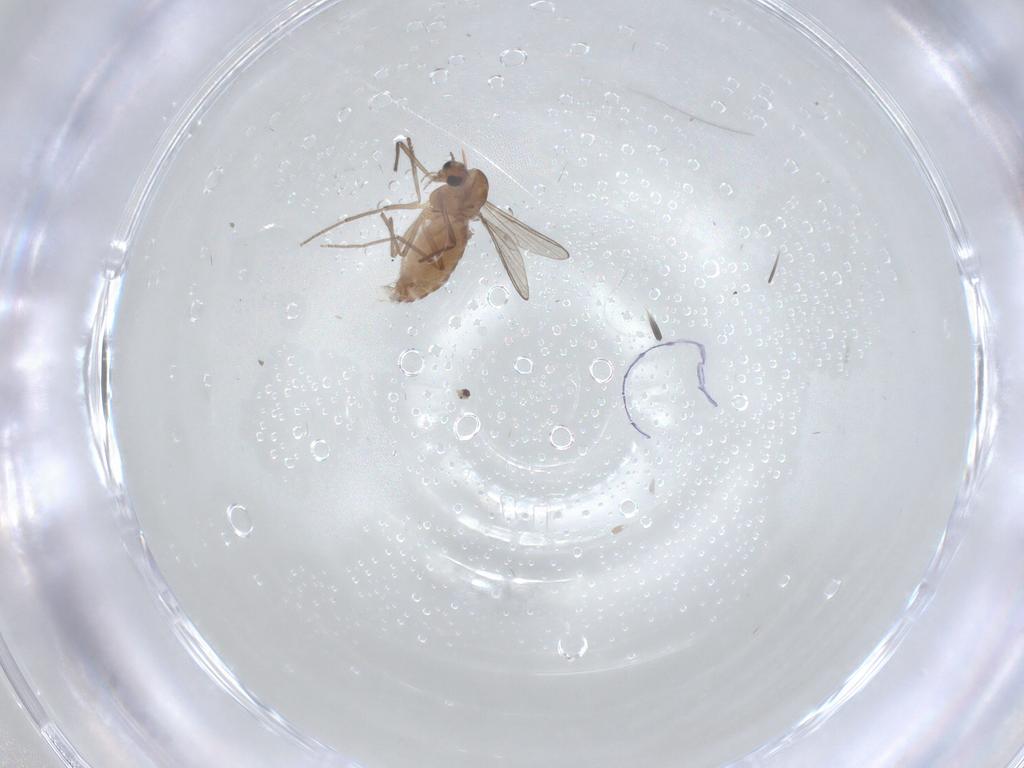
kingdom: Animalia
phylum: Arthropoda
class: Insecta
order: Diptera
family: Chironomidae
